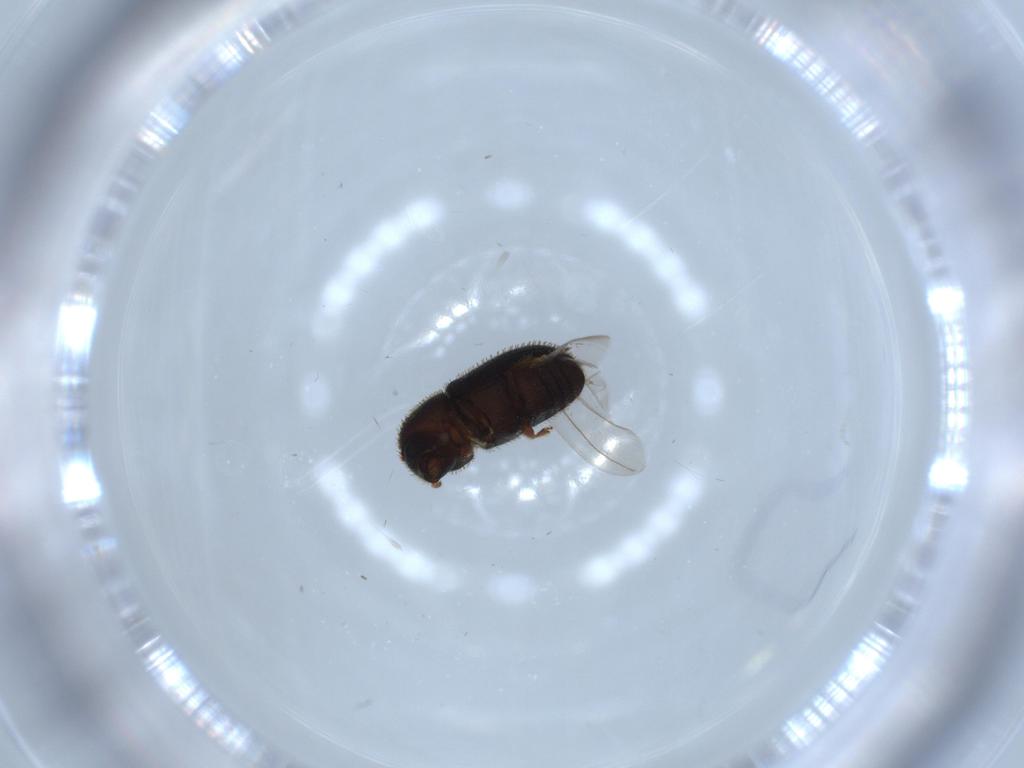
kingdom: Animalia
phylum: Arthropoda
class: Insecta
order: Coleoptera
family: Curculionidae
